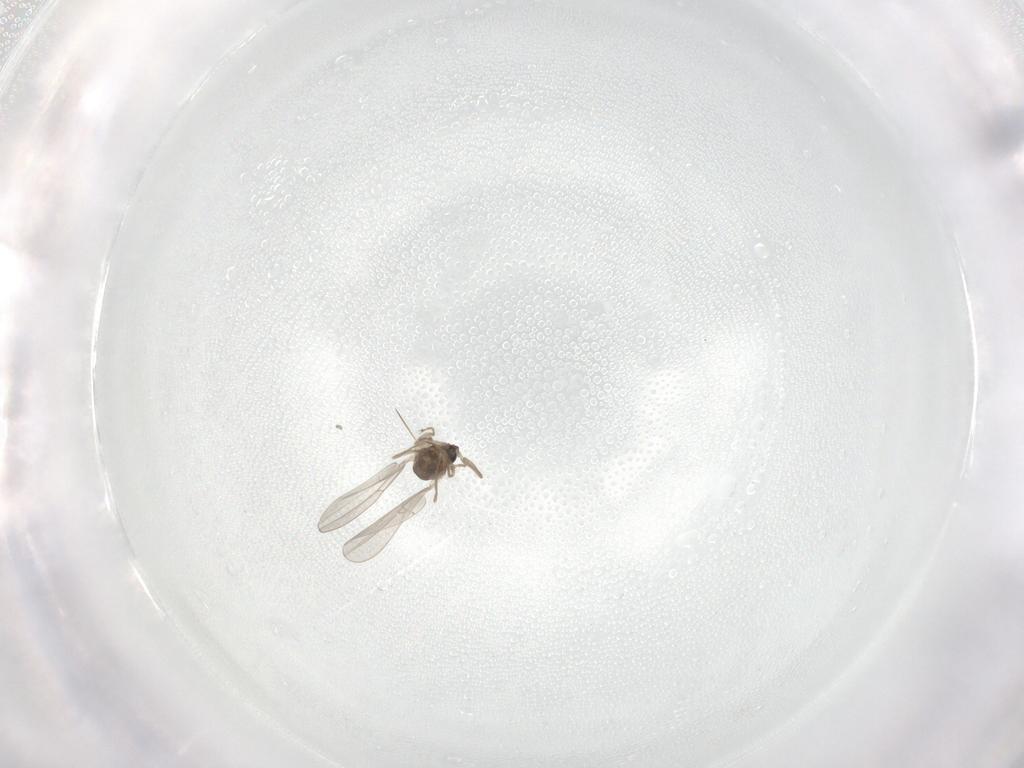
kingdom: Animalia
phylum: Arthropoda
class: Insecta
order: Diptera
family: Cecidomyiidae
